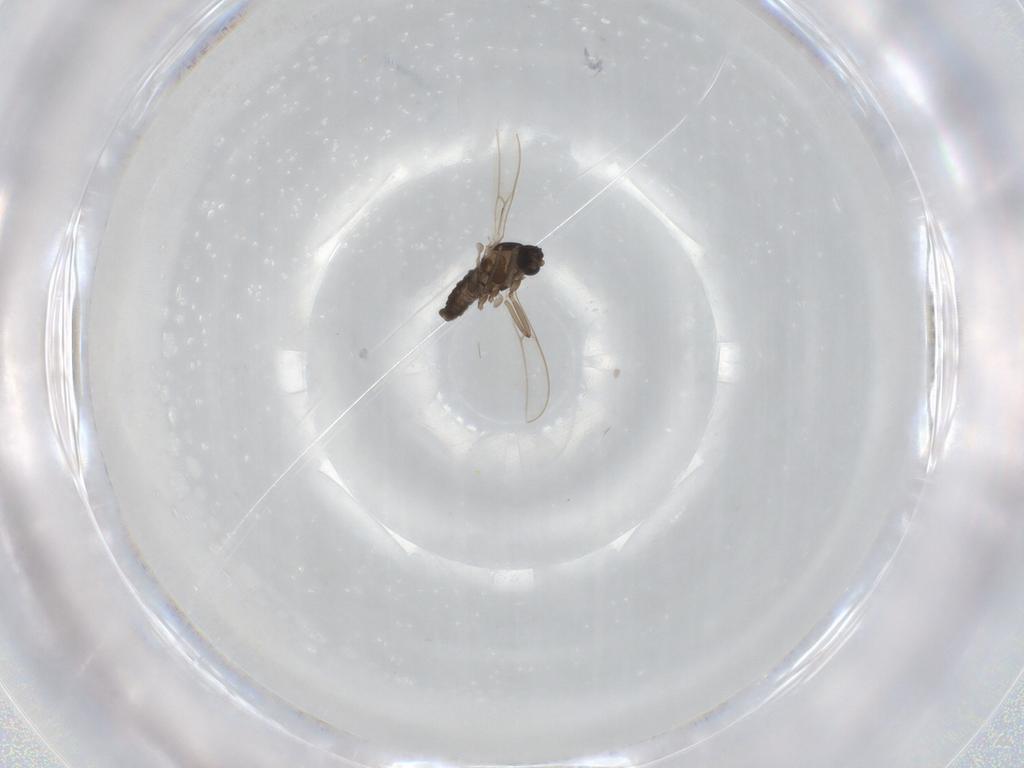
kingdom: Animalia
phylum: Arthropoda
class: Insecta
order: Diptera
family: Cecidomyiidae
